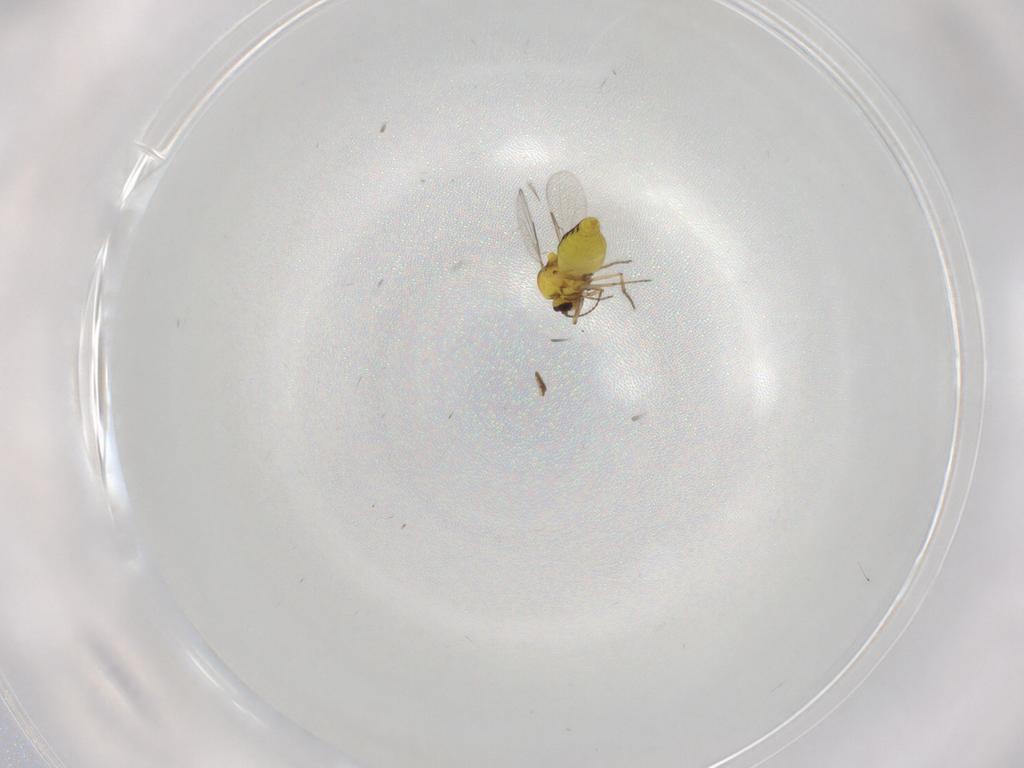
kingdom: Animalia
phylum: Arthropoda
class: Insecta
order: Diptera
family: Ceratopogonidae
